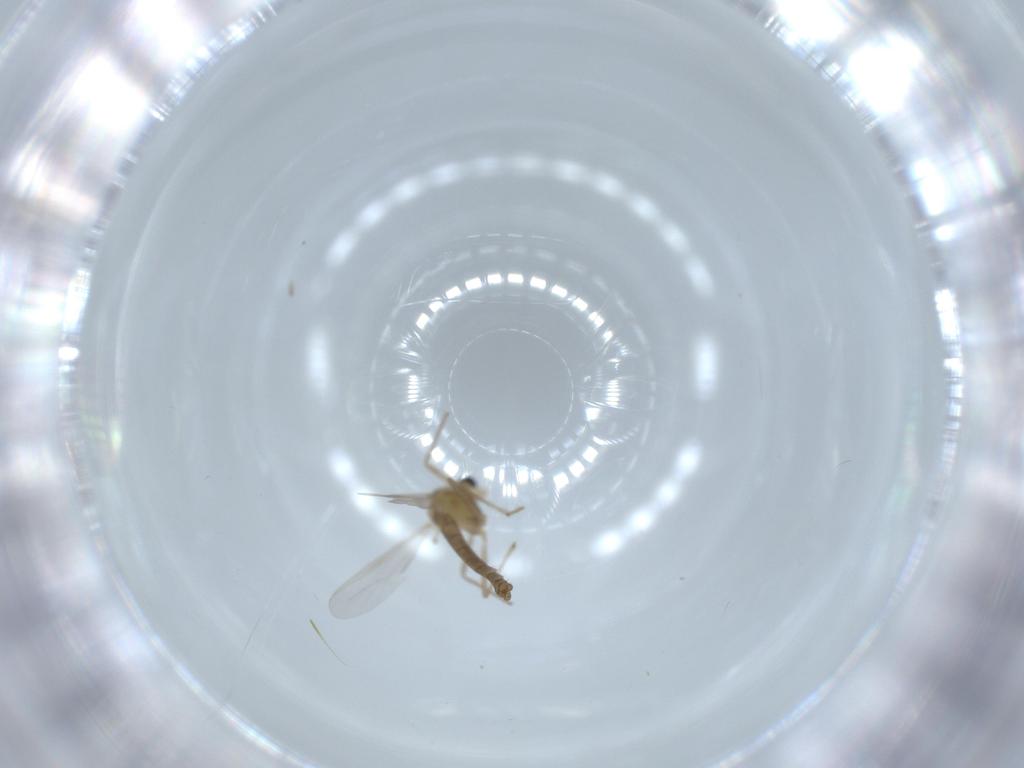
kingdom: Animalia
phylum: Arthropoda
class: Insecta
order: Diptera
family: Chironomidae
